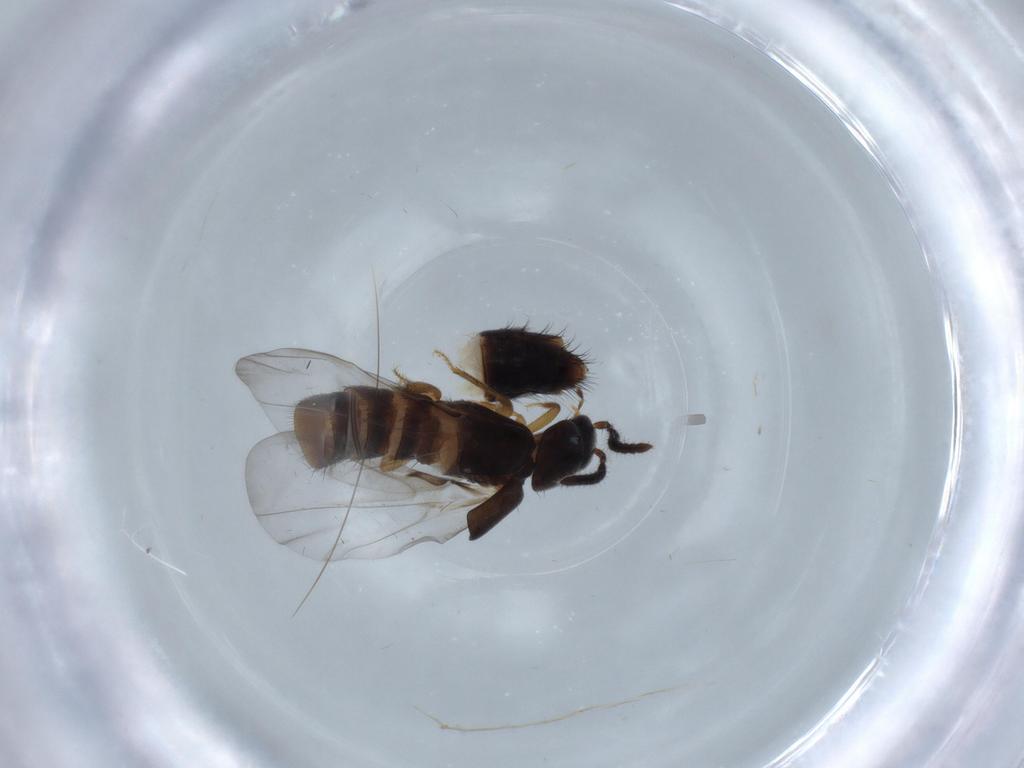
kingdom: Animalia
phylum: Arthropoda
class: Insecta
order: Coleoptera
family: Staphylinidae
